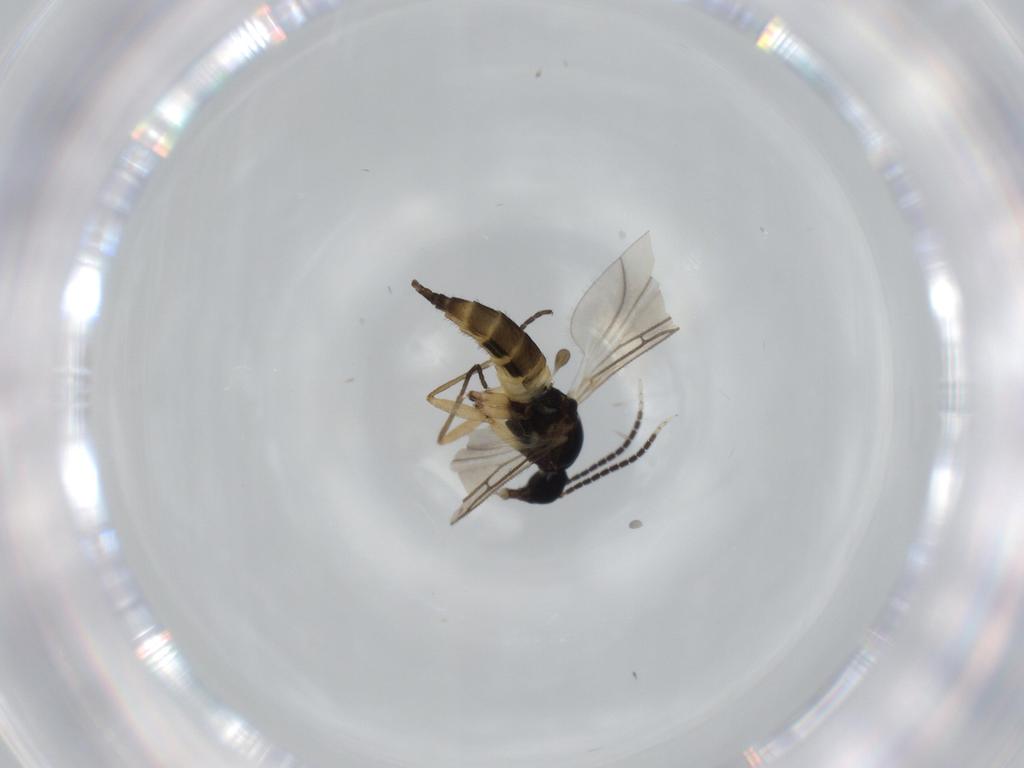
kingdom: Animalia
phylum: Arthropoda
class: Insecta
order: Diptera
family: Sciaridae
